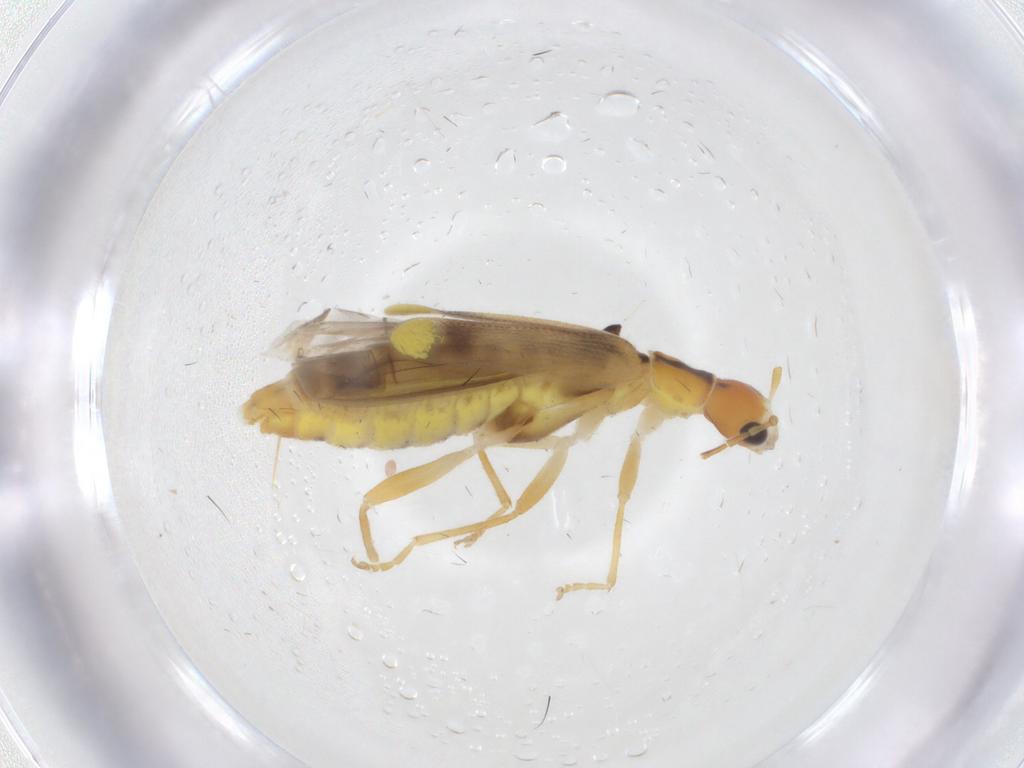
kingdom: Animalia
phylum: Arthropoda
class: Insecta
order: Coleoptera
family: Cantharidae
